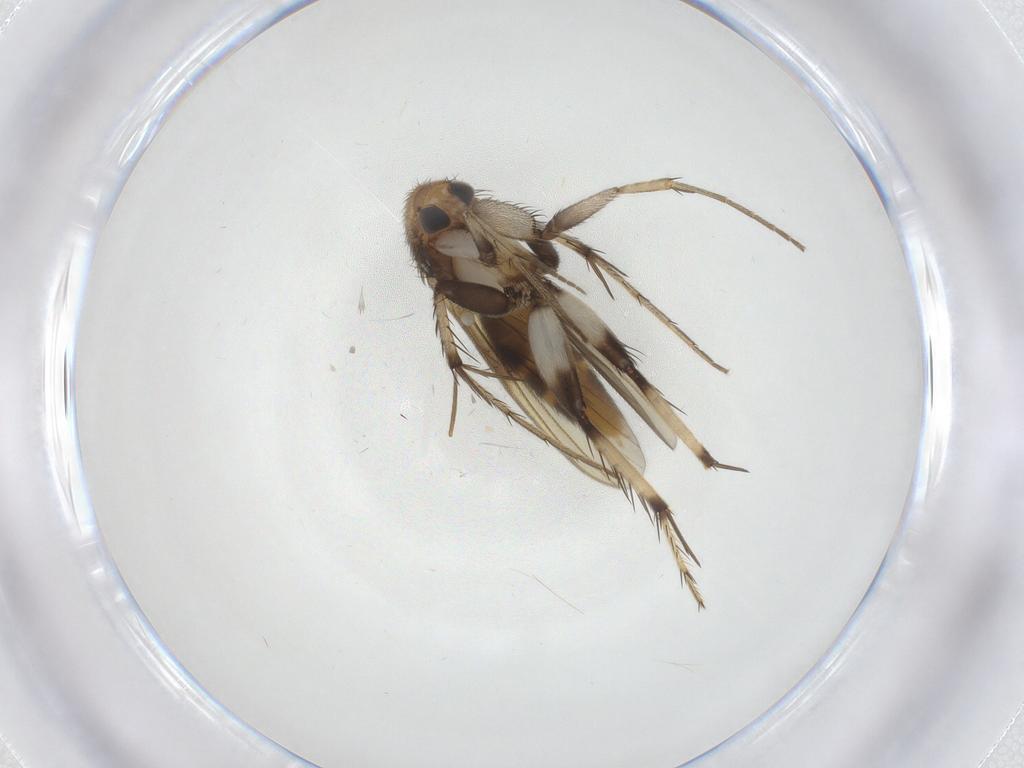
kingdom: Animalia
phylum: Arthropoda
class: Insecta
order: Diptera
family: Mycetophilidae
